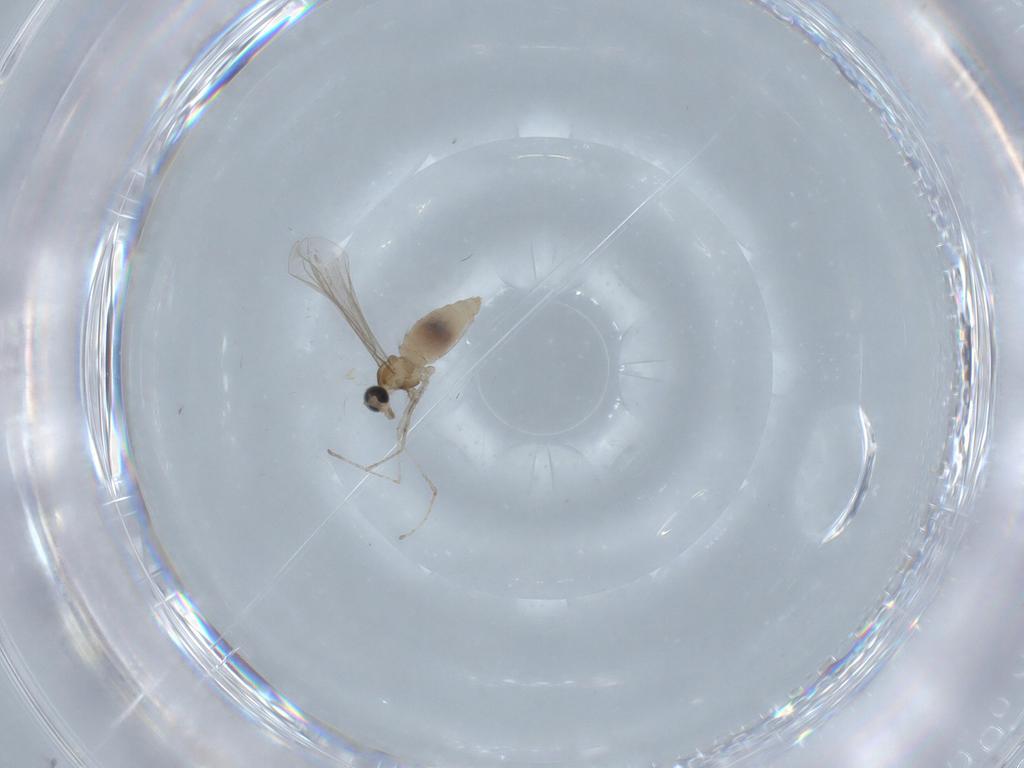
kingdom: Animalia
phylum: Arthropoda
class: Insecta
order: Diptera
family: Cecidomyiidae
